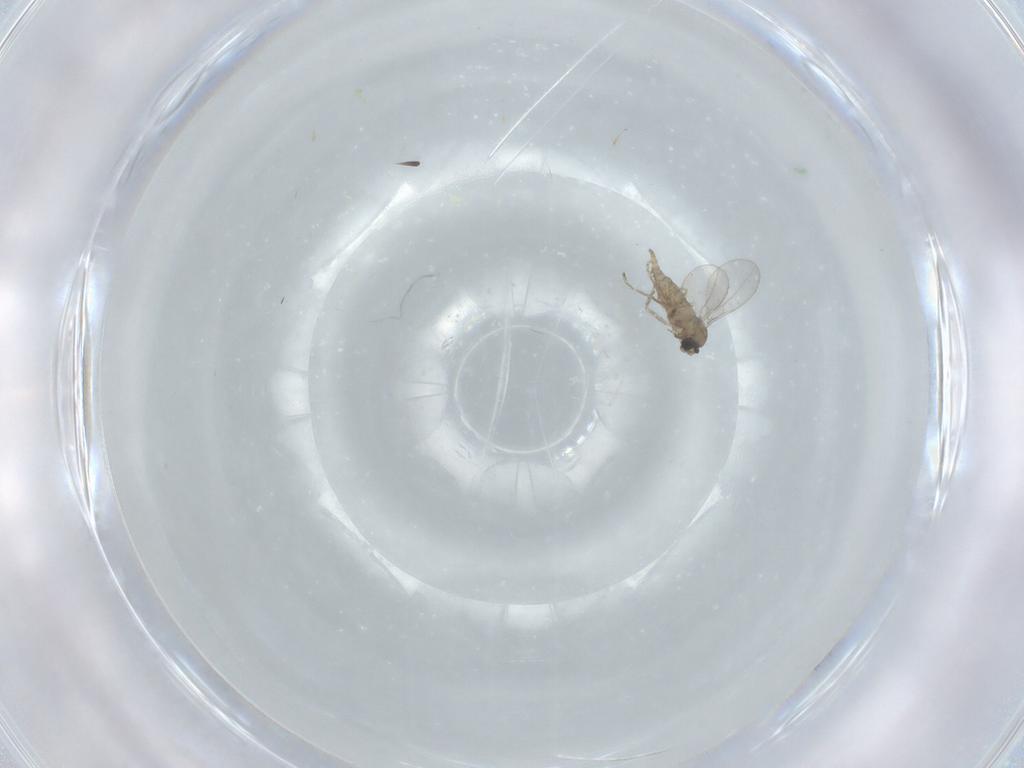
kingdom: Animalia
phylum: Arthropoda
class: Insecta
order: Diptera
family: Cecidomyiidae
